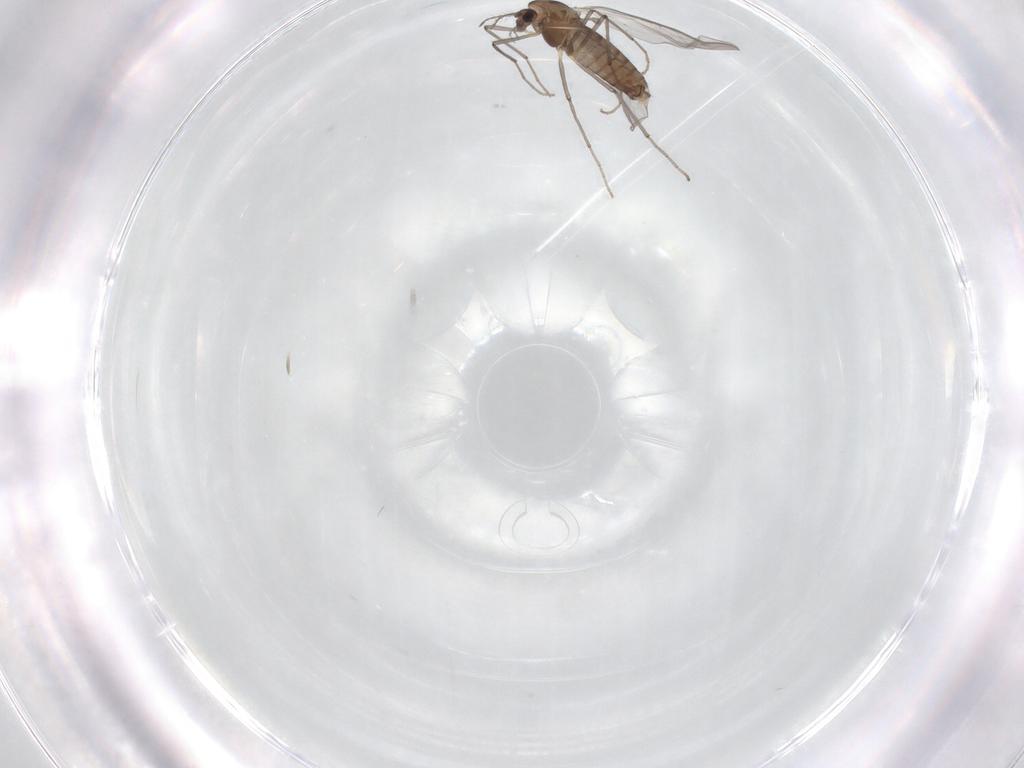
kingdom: Animalia
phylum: Arthropoda
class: Insecta
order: Diptera
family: Chironomidae
